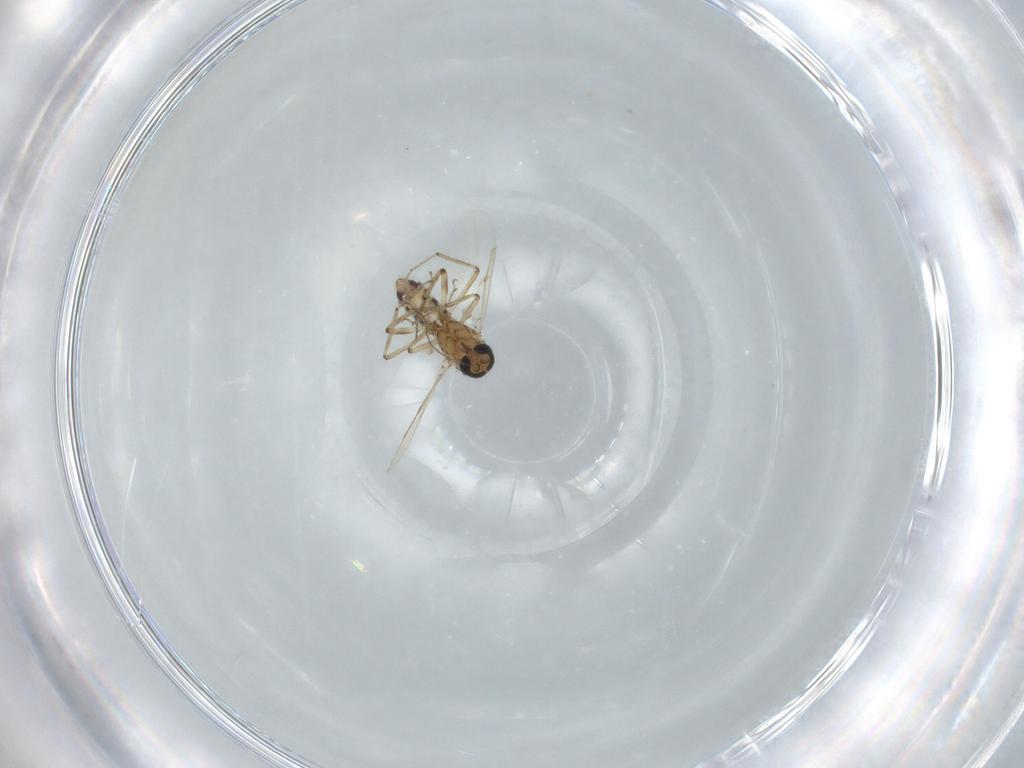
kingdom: Animalia
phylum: Arthropoda
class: Insecta
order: Diptera
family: Ceratopogonidae
